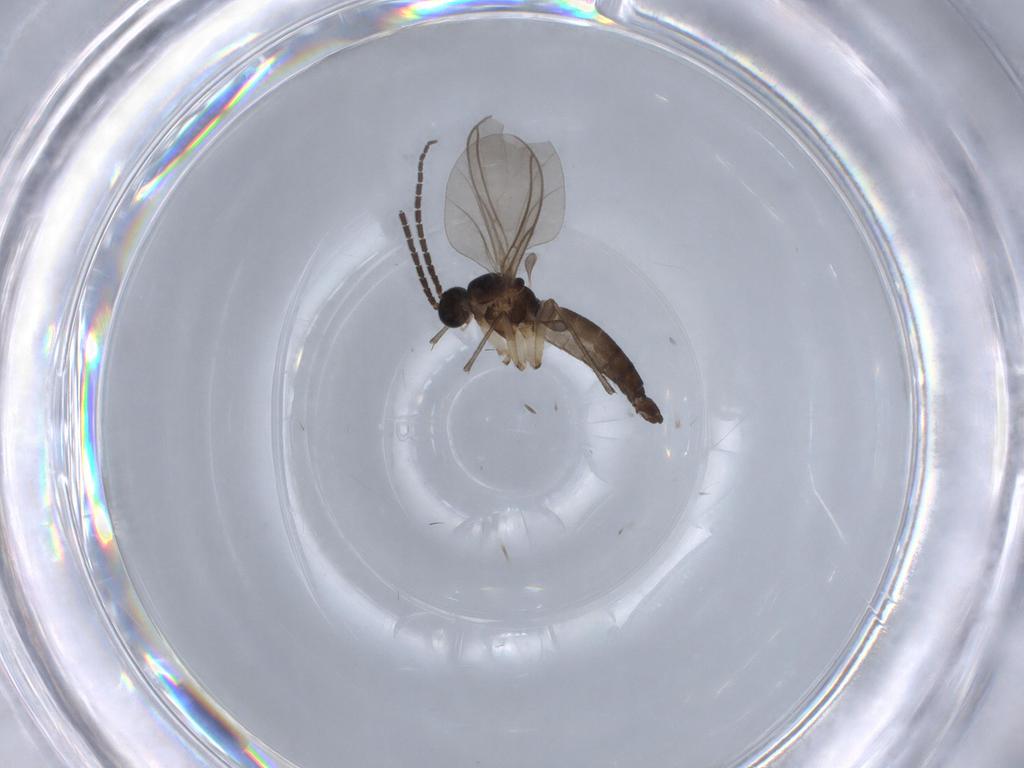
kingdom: Animalia
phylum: Arthropoda
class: Insecta
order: Diptera
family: Sciaridae
